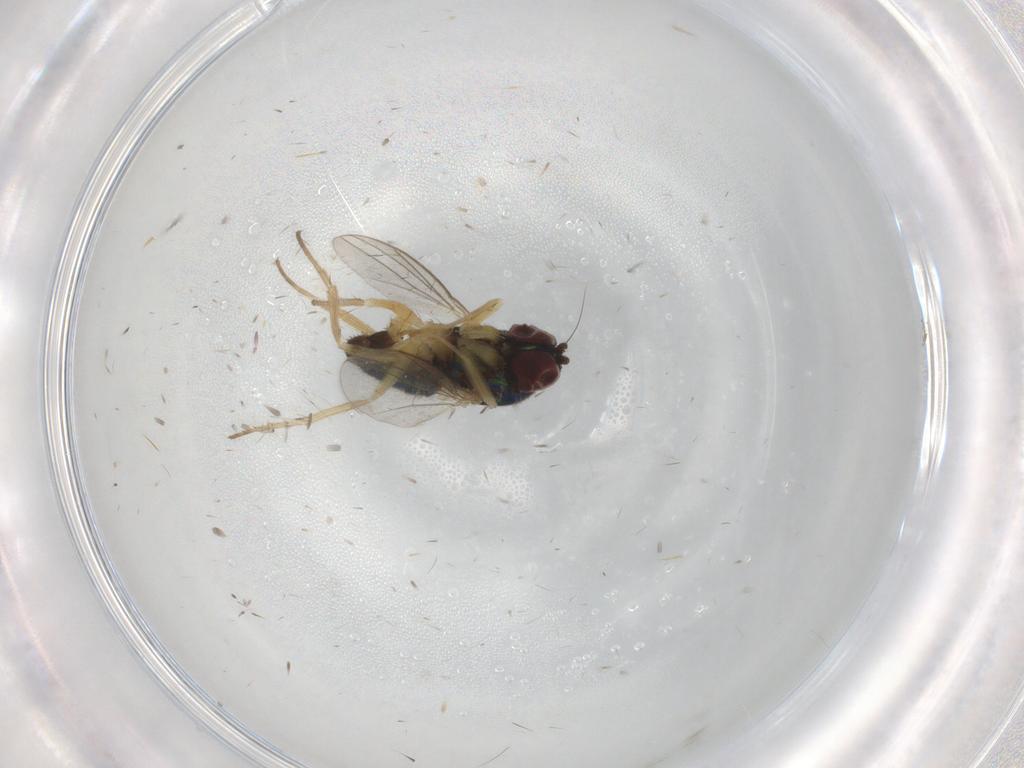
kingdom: Animalia
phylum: Arthropoda
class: Insecta
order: Diptera
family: Dolichopodidae
